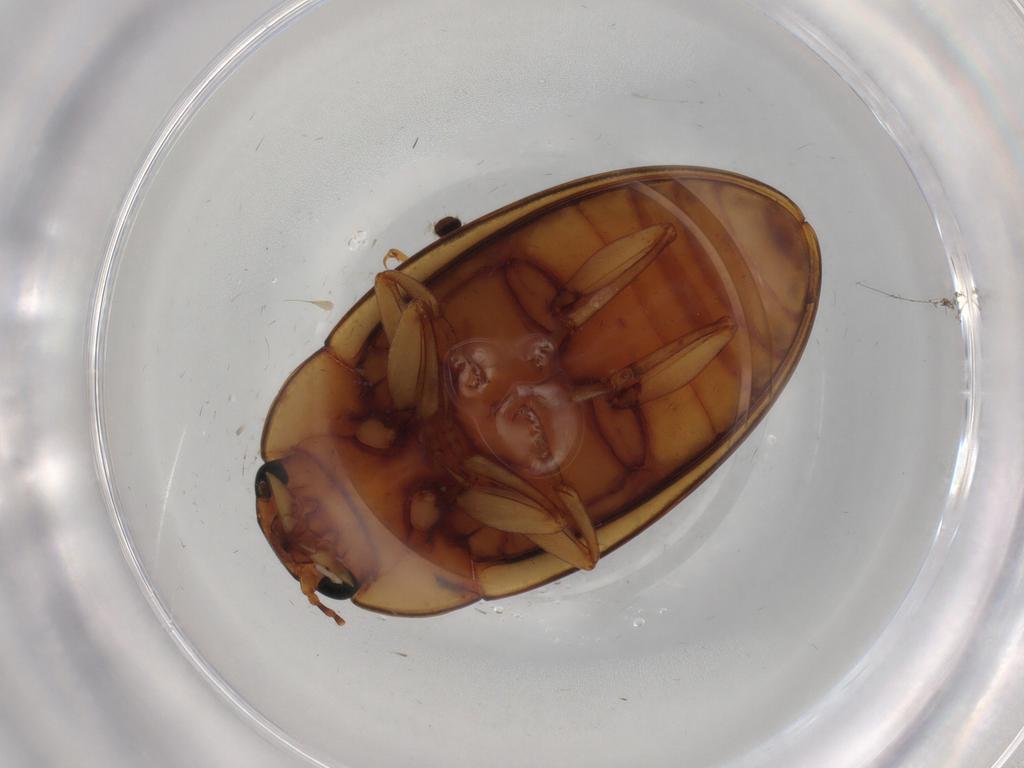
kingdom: Animalia
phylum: Arthropoda
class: Insecta
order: Coleoptera
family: Erotylidae
